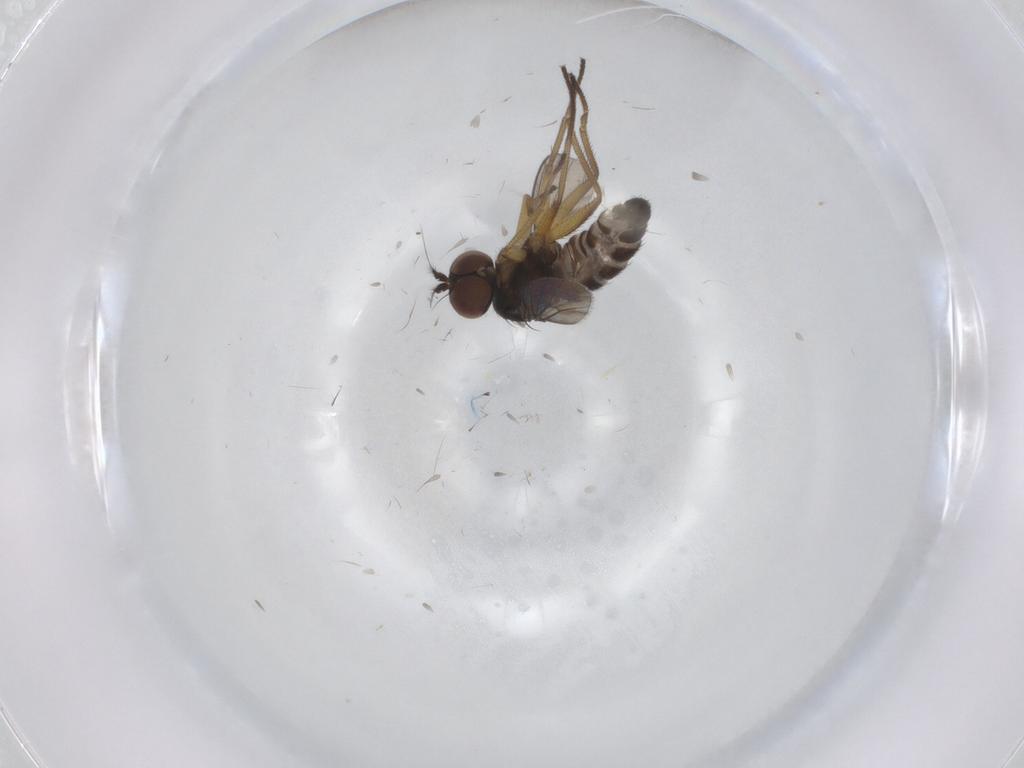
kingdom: Animalia
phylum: Arthropoda
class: Insecta
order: Diptera
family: Dolichopodidae
